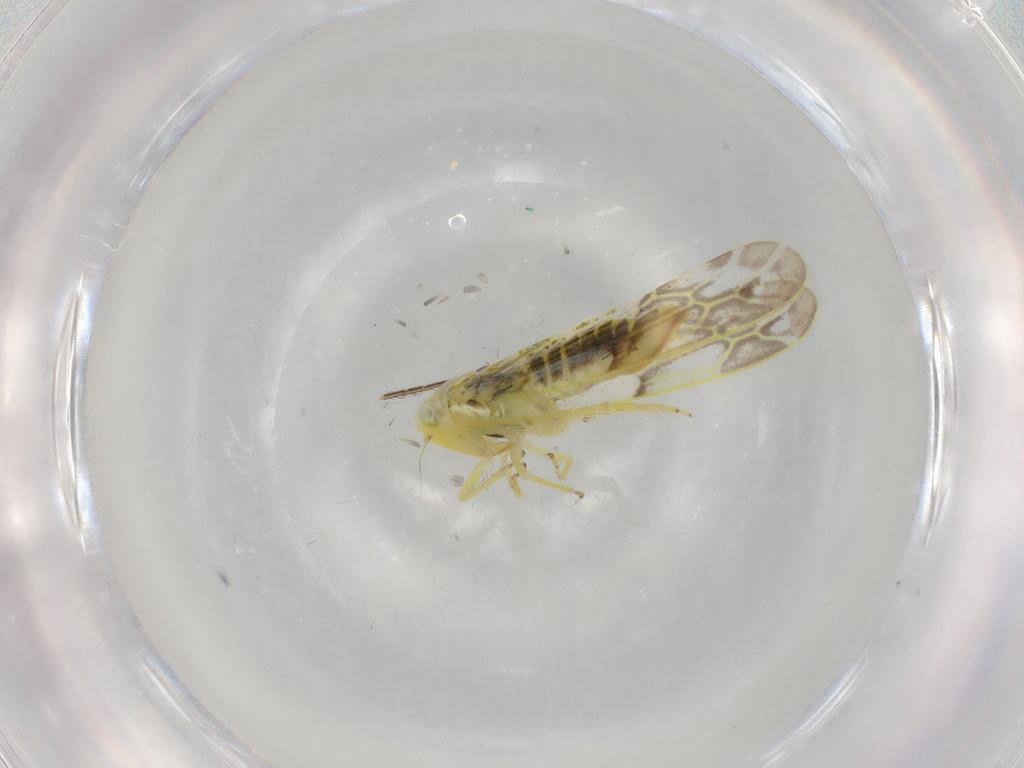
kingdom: Animalia
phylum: Arthropoda
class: Insecta
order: Hemiptera
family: Cicadellidae
